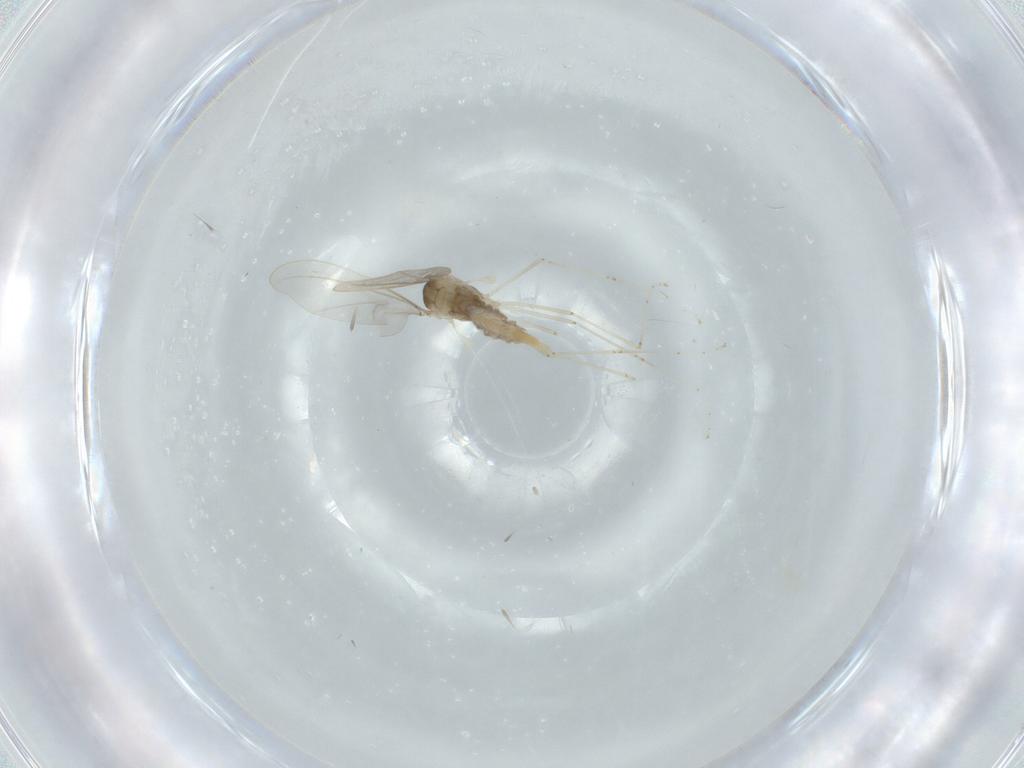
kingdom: Animalia
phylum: Arthropoda
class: Insecta
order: Diptera
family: Cecidomyiidae
